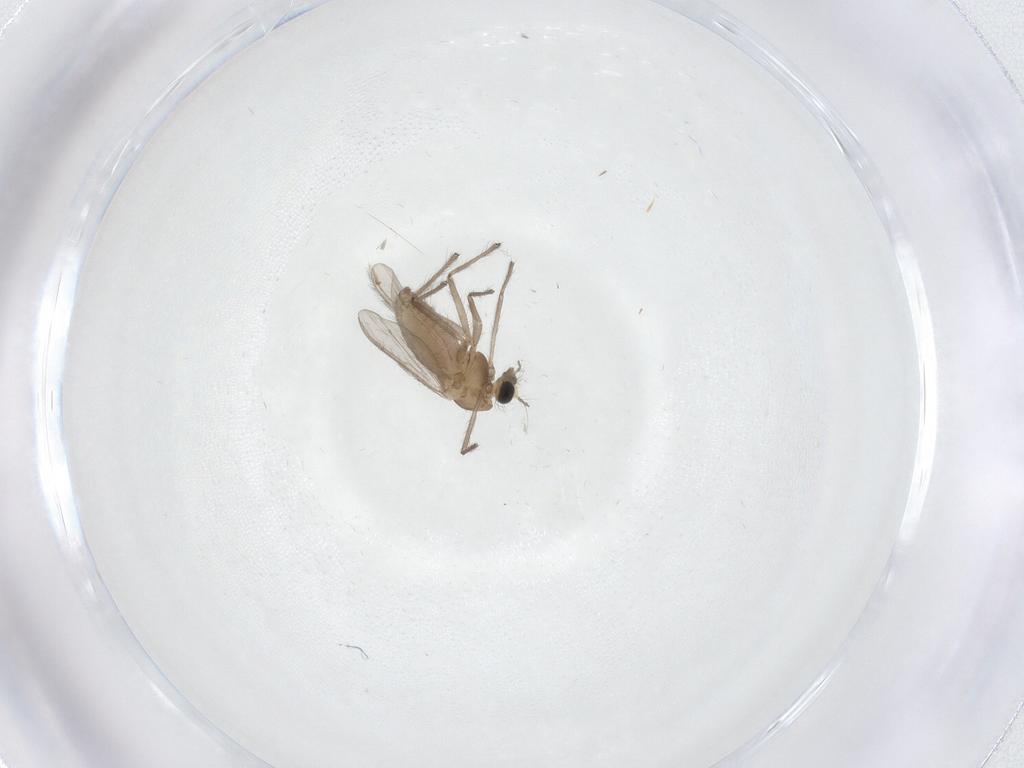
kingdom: Animalia
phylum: Arthropoda
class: Insecta
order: Diptera
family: Chironomidae
